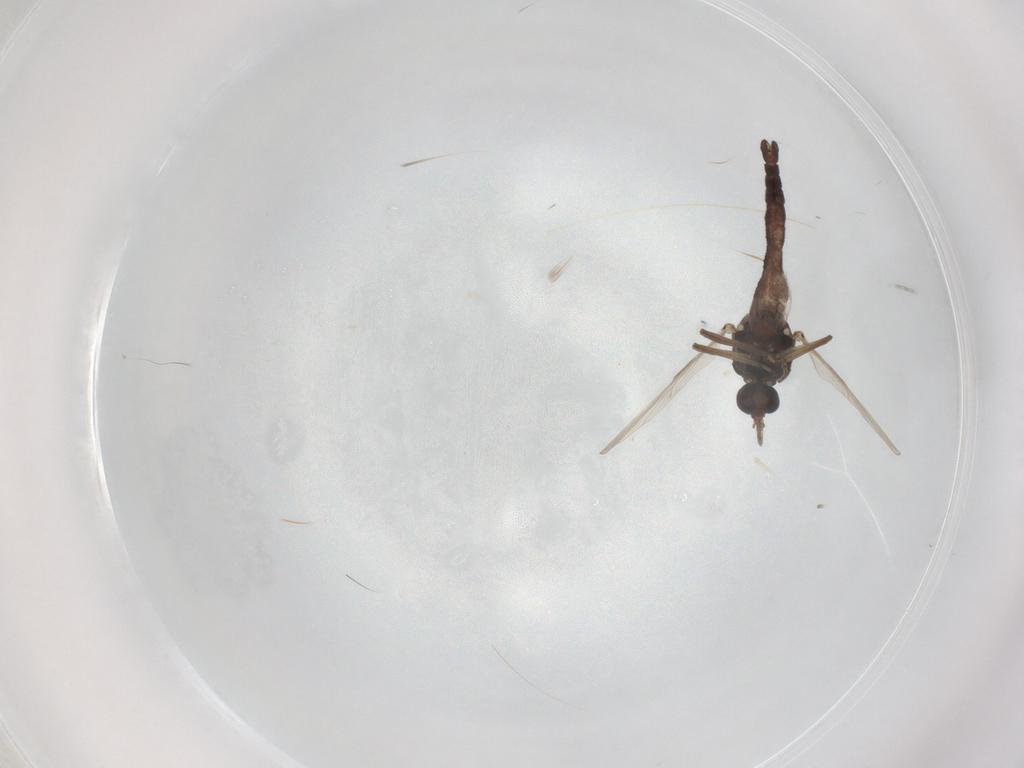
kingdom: Animalia
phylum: Arthropoda
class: Insecta
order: Diptera
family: Ceratopogonidae
